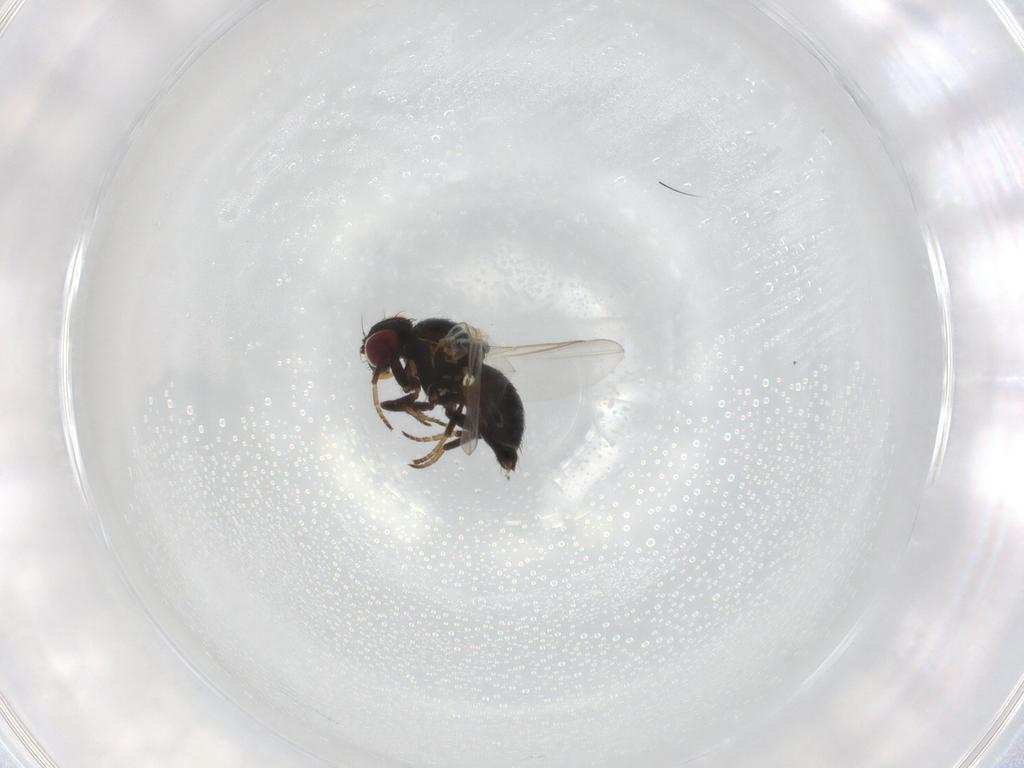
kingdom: Animalia
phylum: Arthropoda
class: Insecta
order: Diptera
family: Agromyzidae
